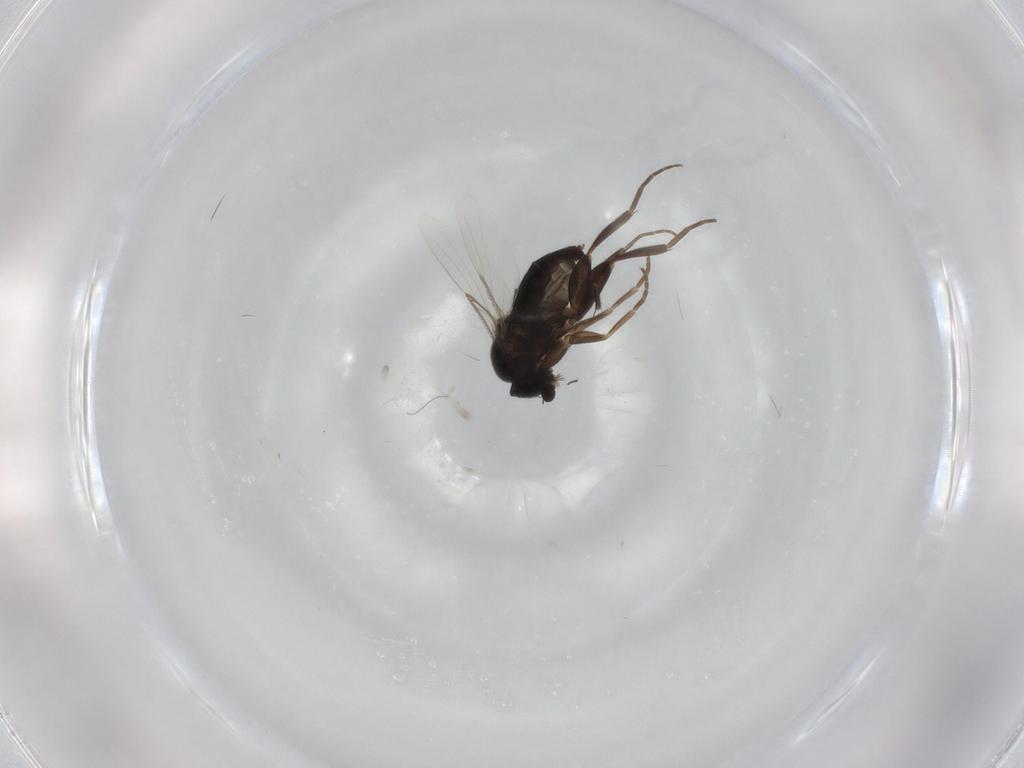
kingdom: Animalia
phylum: Arthropoda
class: Insecta
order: Diptera
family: Phoridae
